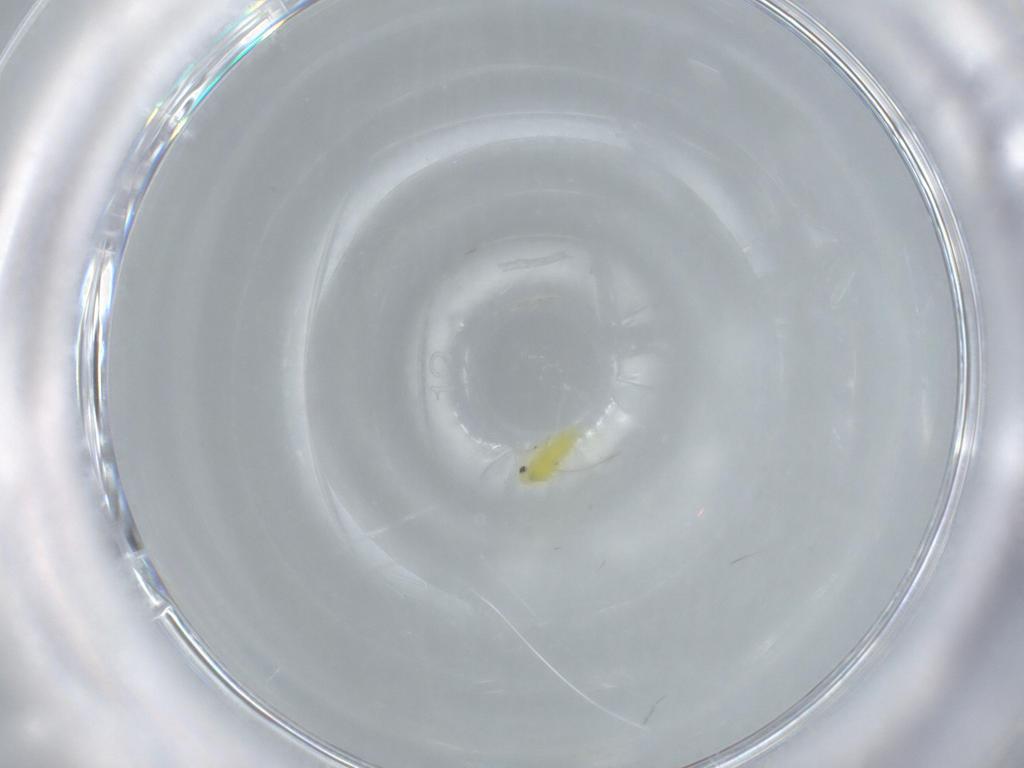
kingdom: Animalia
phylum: Arthropoda
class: Insecta
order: Hemiptera
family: Aleyrodidae
